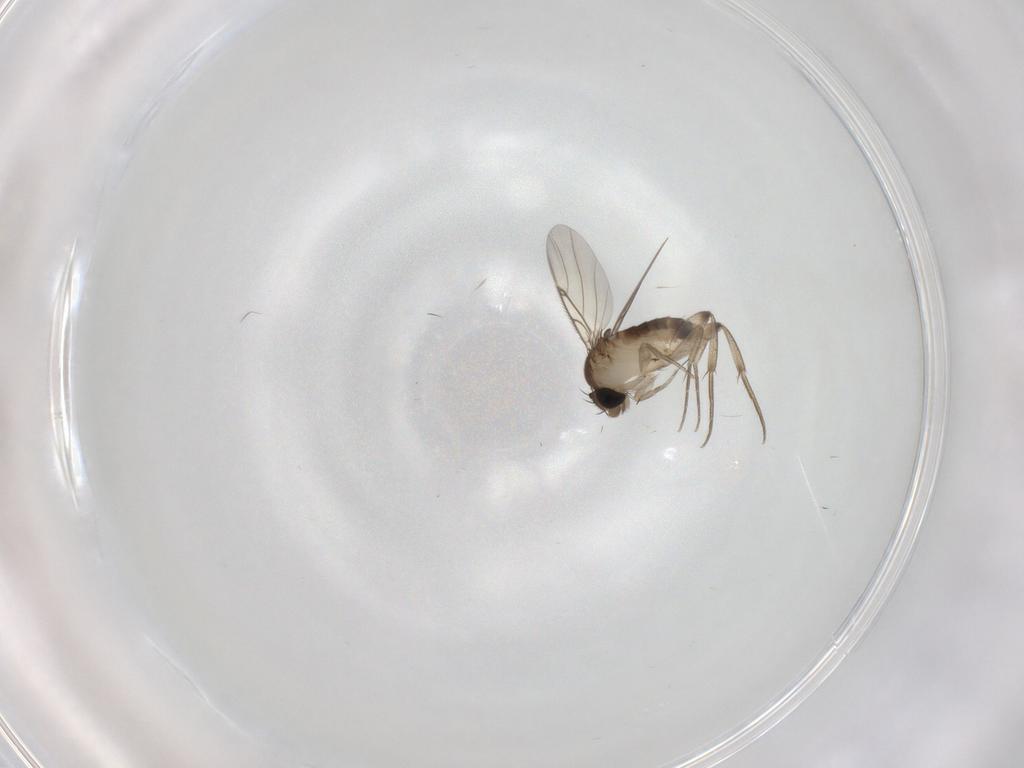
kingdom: Animalia
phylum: Arthropoda
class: Insecta
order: Diptera
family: Phoridae
